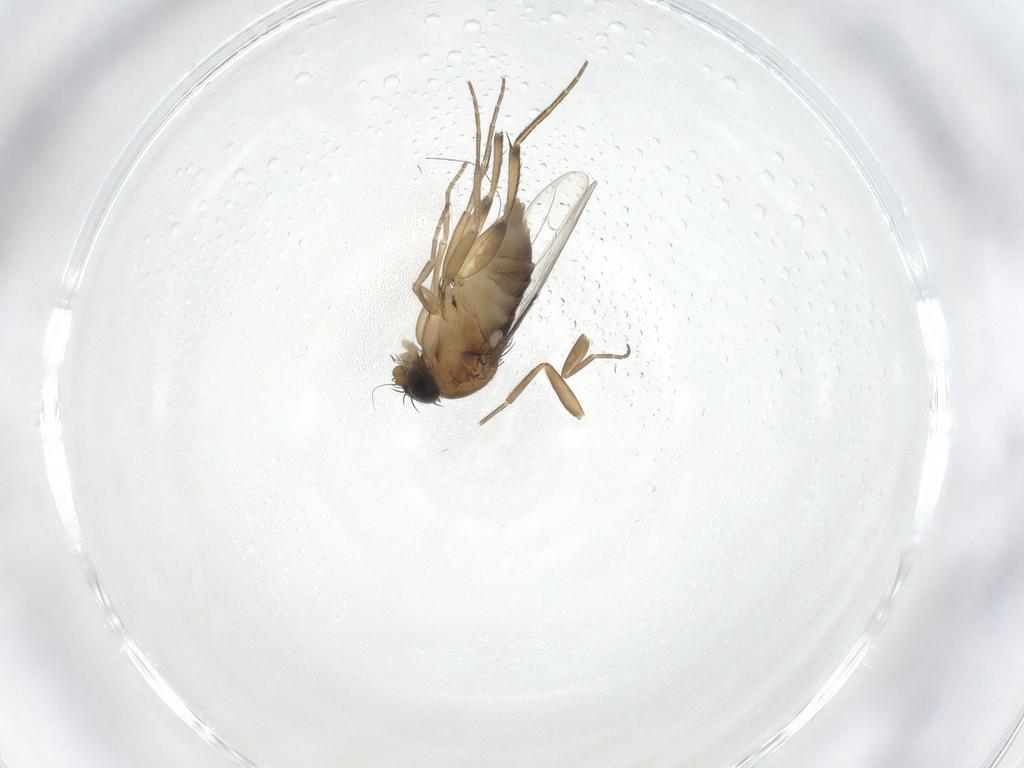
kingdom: Animalia
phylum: Arthropoda
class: Insecta
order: Diptera
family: Phoridae
